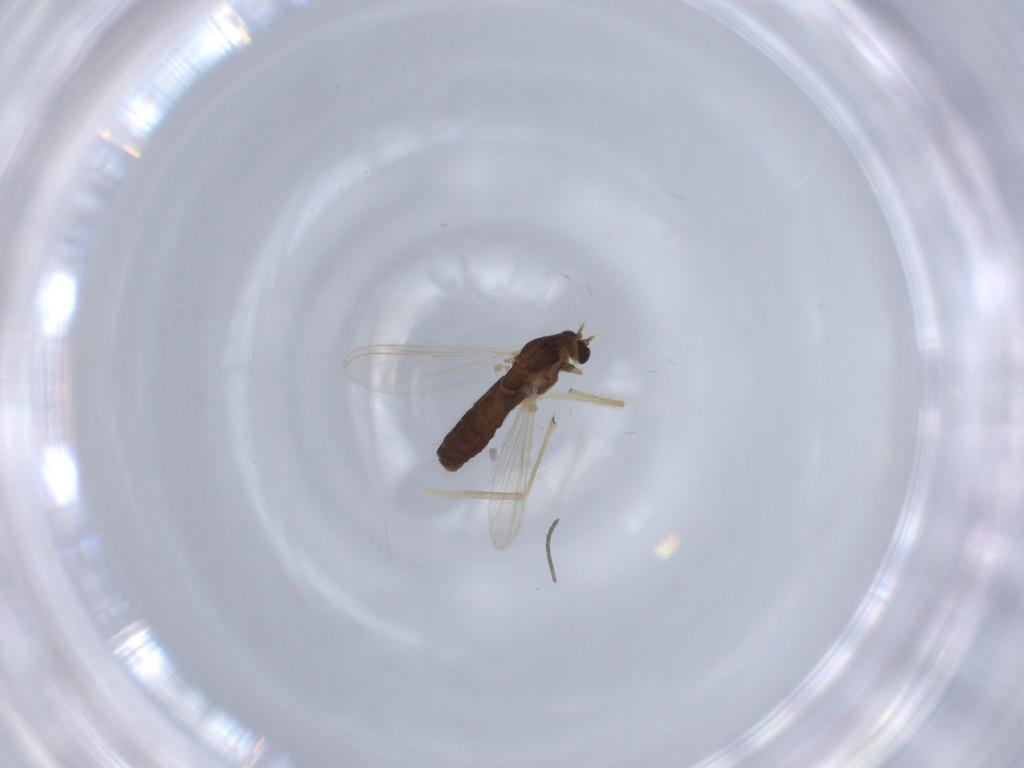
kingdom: Animalia
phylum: Arthropoda
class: Insecta
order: Diptera
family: Chironomidae
